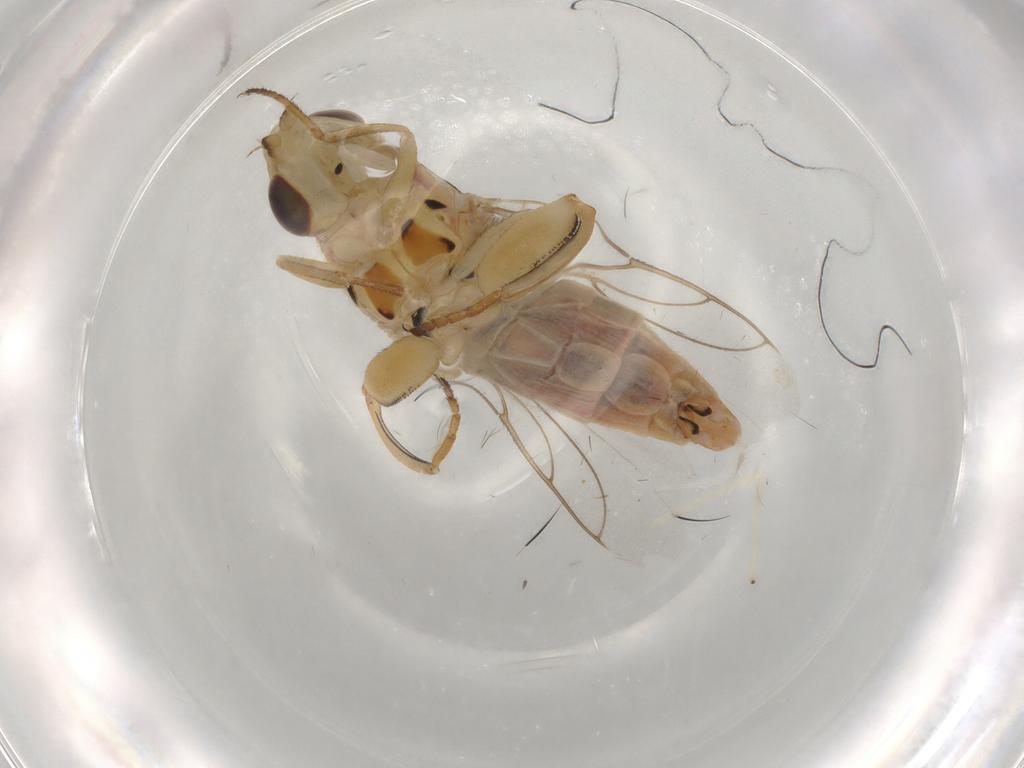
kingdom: Animalia
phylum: Arthropoda
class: Insecta
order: Diptera
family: Chloropidae
